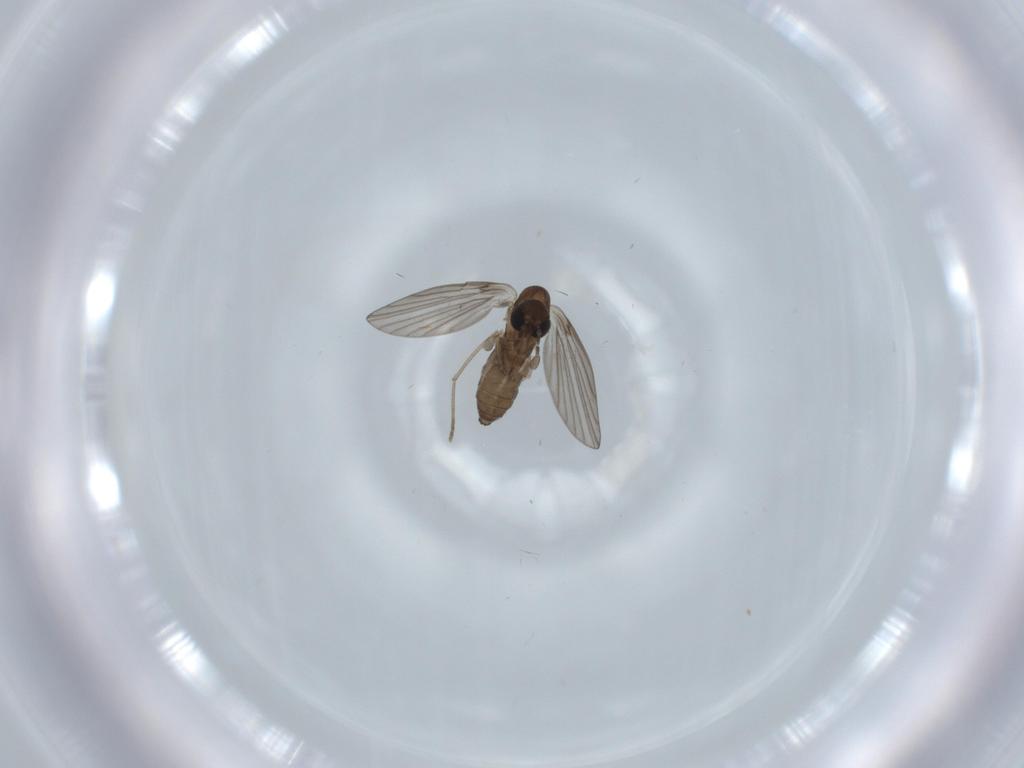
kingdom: Animalia
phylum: Arthropoda
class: Insecta
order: Diptera
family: Psychodidae
